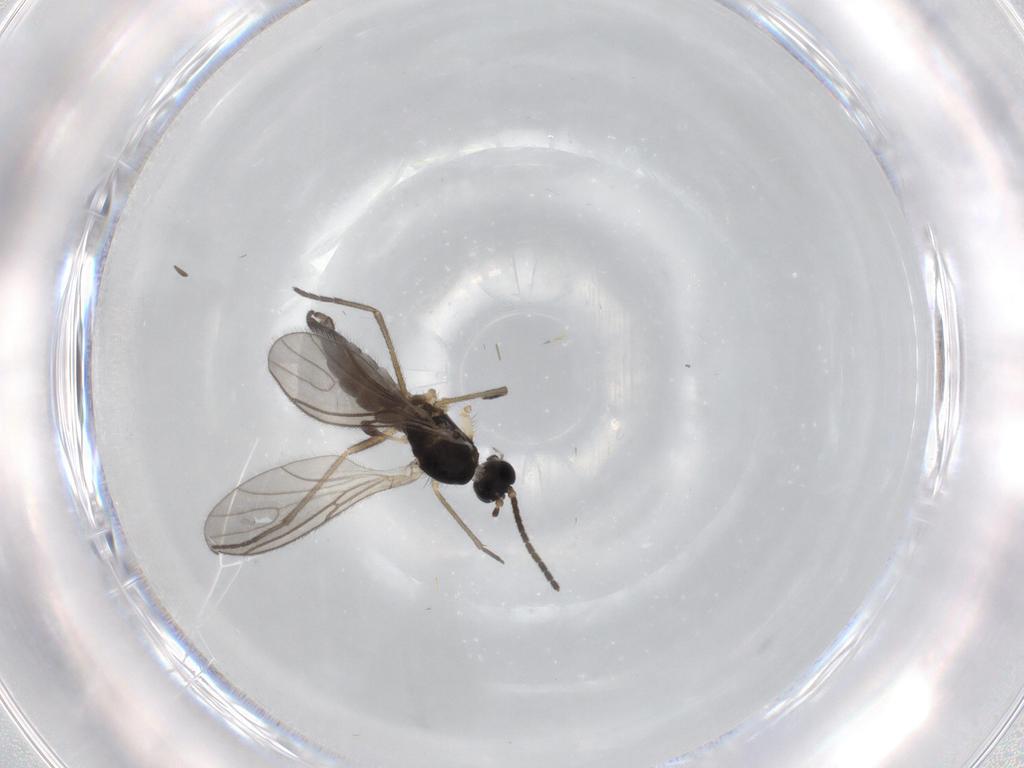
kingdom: Animalia
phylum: Arthropoda
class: Insecta
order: Diptera
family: Sciaridae
